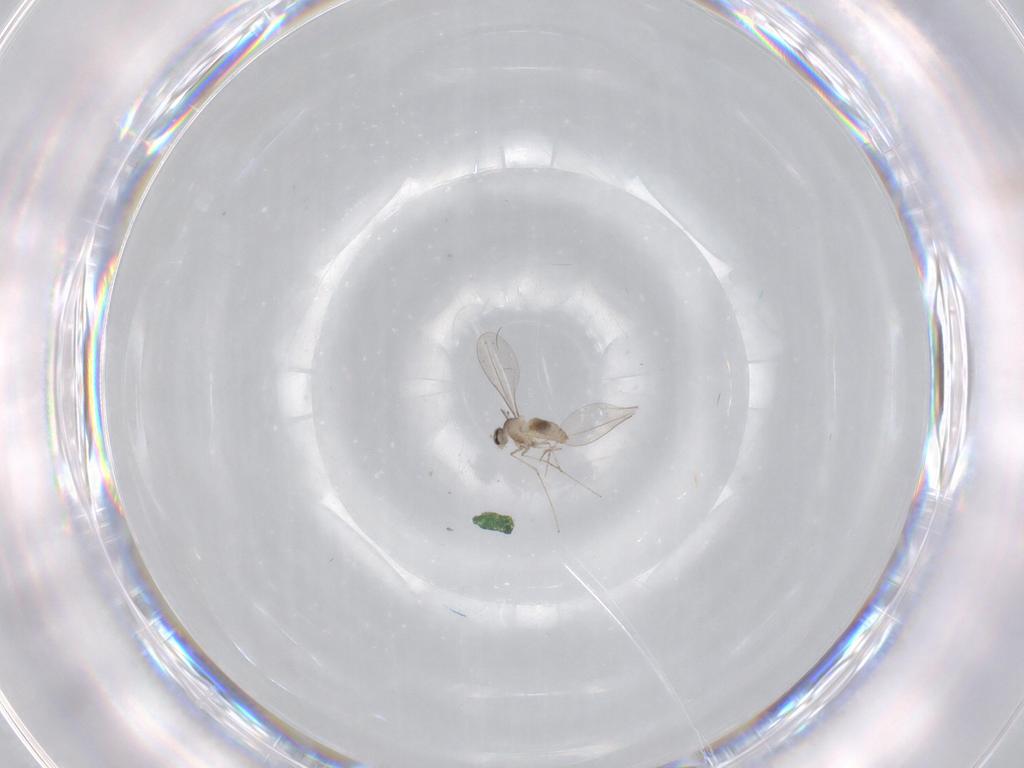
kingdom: Animalia
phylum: Arthropoda
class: Insecta
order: Diptera
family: Cecidomyiidae
